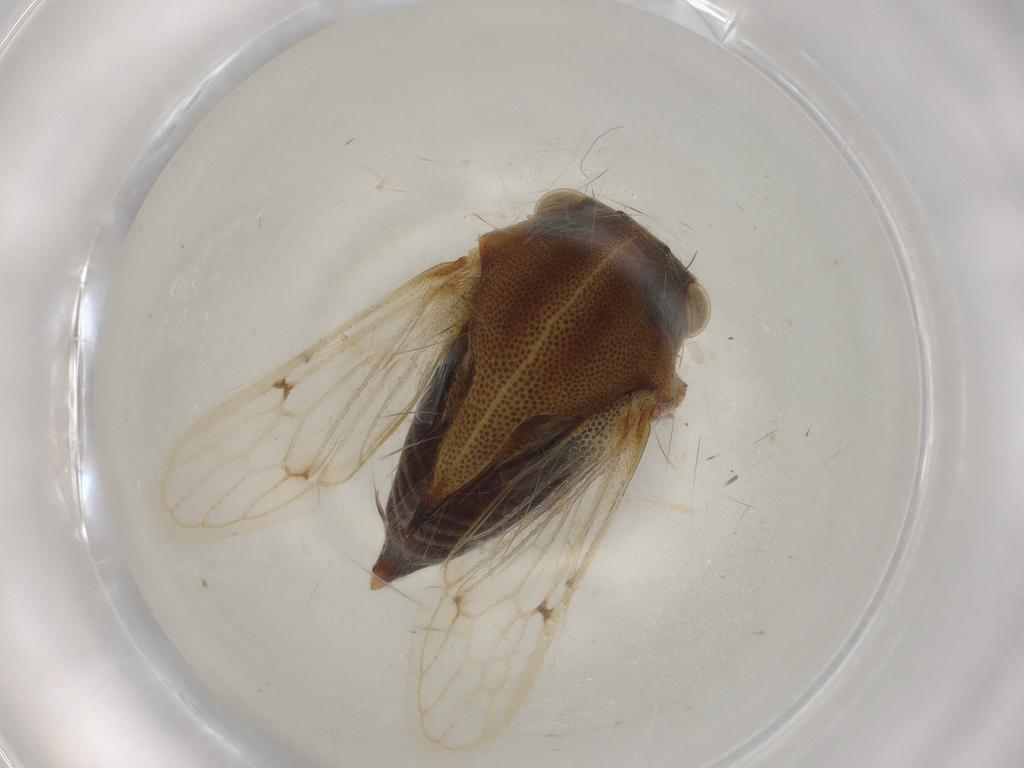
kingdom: Animalia
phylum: Arthropoda
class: Insecta
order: Hemiptera
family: Membracidae
